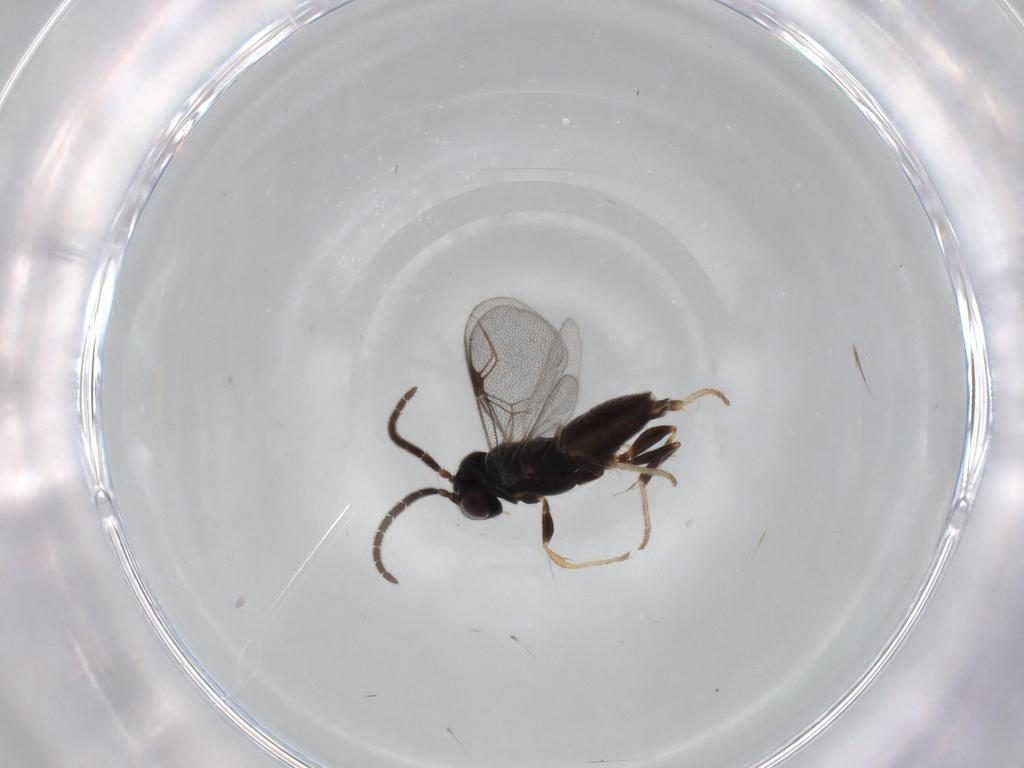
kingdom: Animalia
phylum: Arthropoda
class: Insecta
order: Hymenoptera
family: Dryinidae
